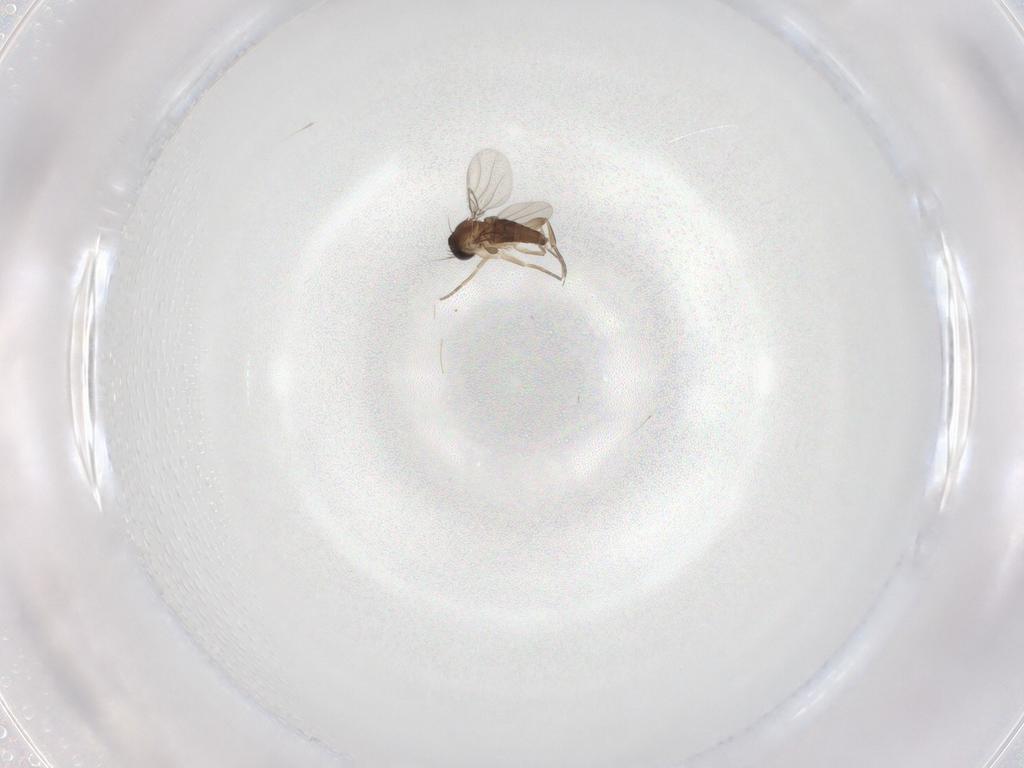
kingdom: Animalia
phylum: Arthropoda
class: Insecta
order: Diptera
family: Phoridae
